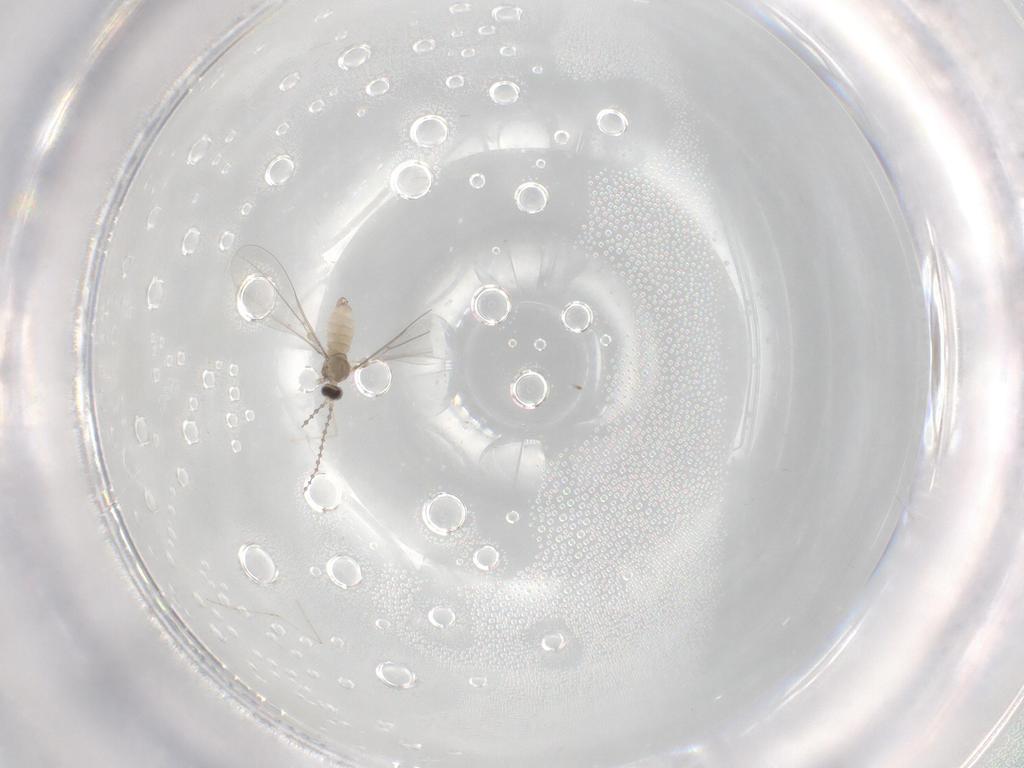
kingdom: Animalia
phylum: Arthropoda
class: Insecta
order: Diptera
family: Cecidomyiidae
